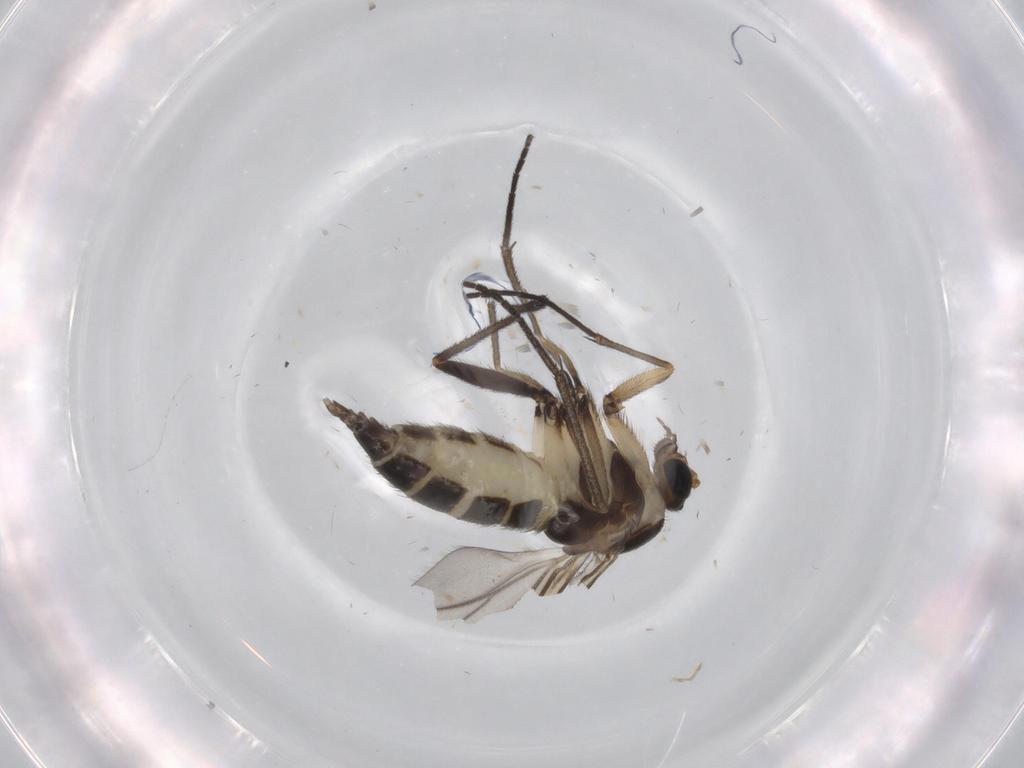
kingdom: Animalia
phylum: Arthropoda
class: Insecta
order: Diptera
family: Sciaridae
